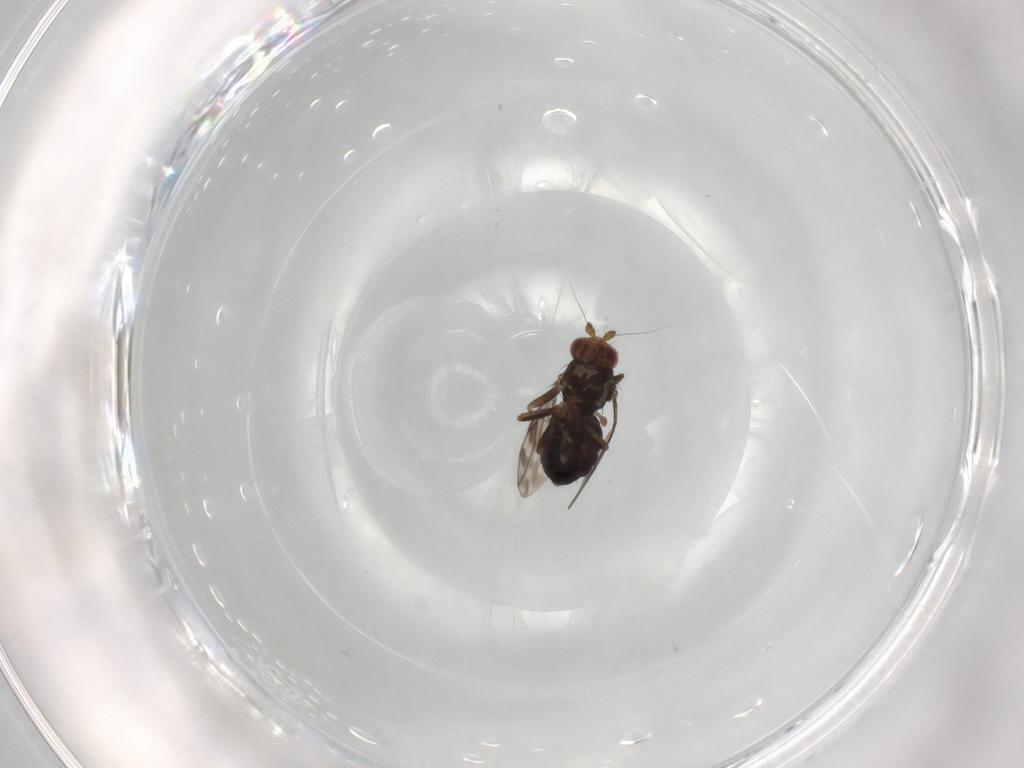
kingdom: Animalia
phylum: Arthropoda
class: Insecta
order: Diptera
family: Sphaeroceridae
